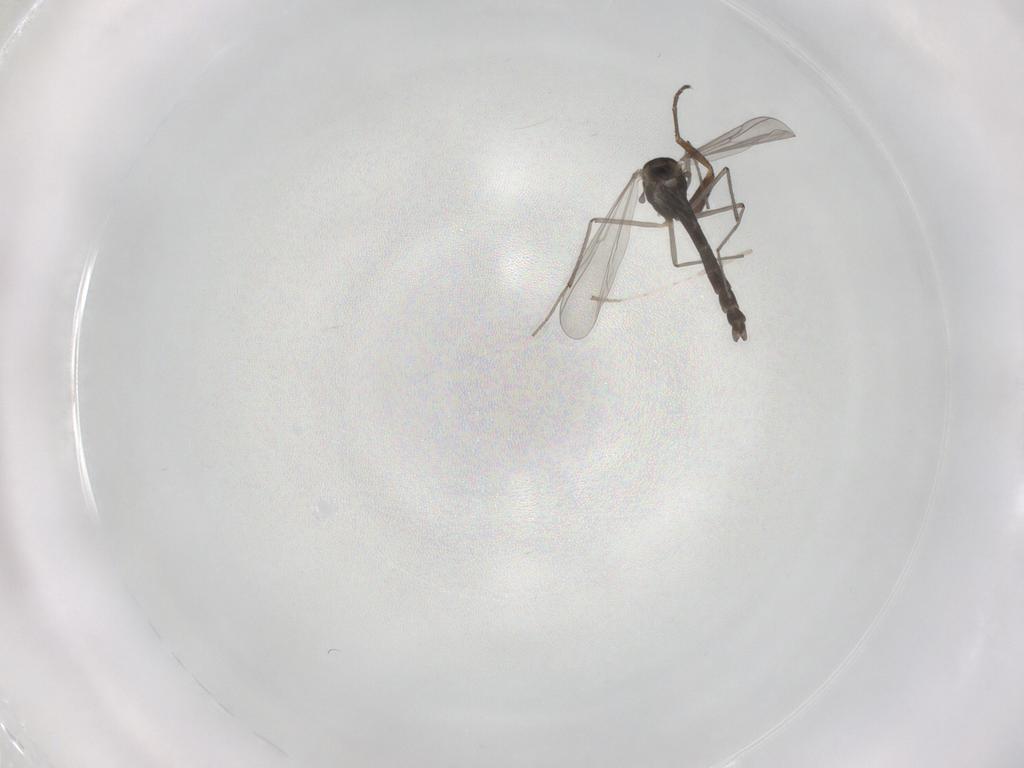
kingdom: Animalia
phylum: Arthropoda
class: Insecta
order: Diptera
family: Chironomidae
